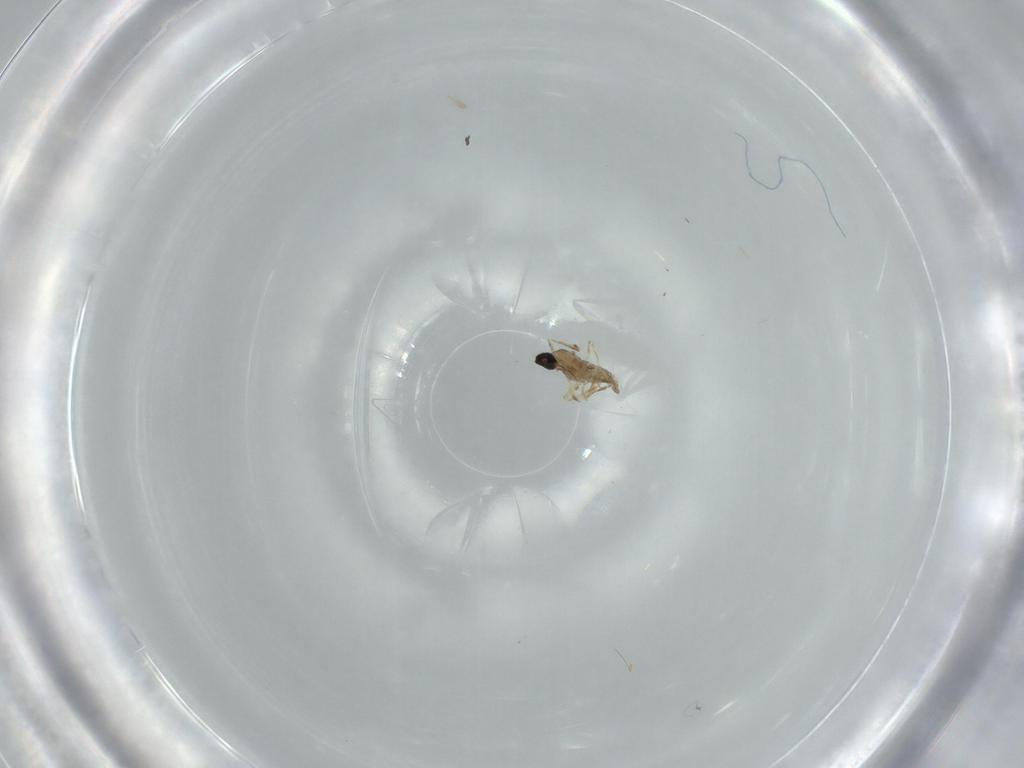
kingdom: Animalia
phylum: Arthropoda
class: Insecta
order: Diptera
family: Cecidomyiidae
